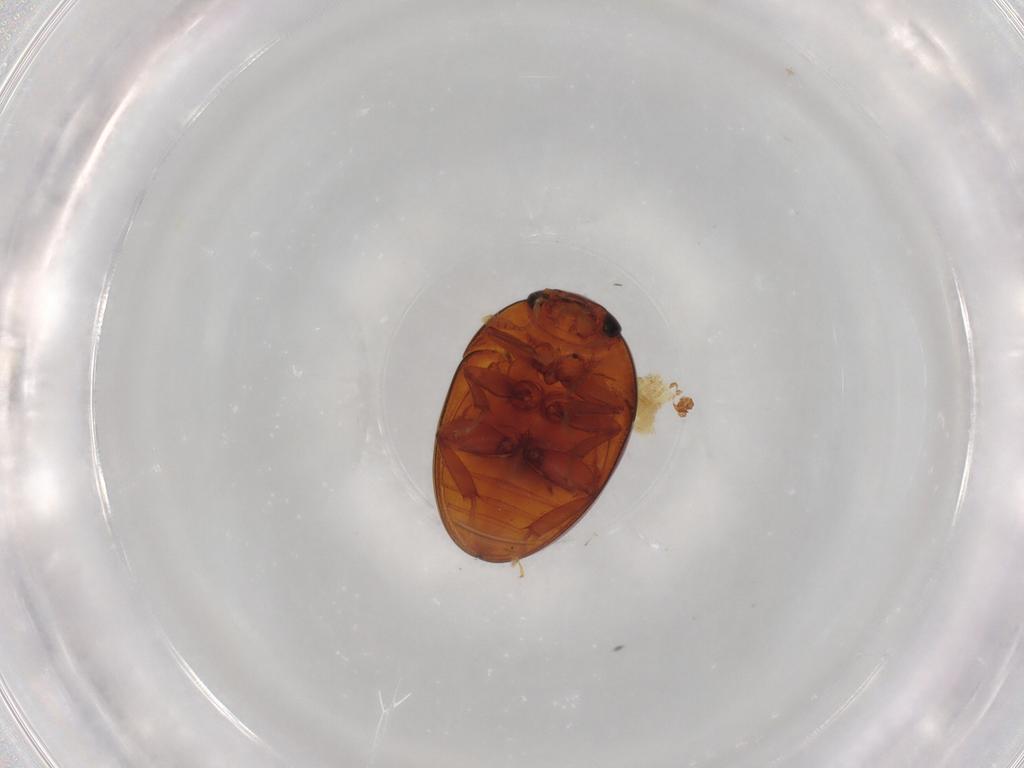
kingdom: Animalia
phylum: Arthropoda
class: Insecta
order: Coleoptera
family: Phalacridae
